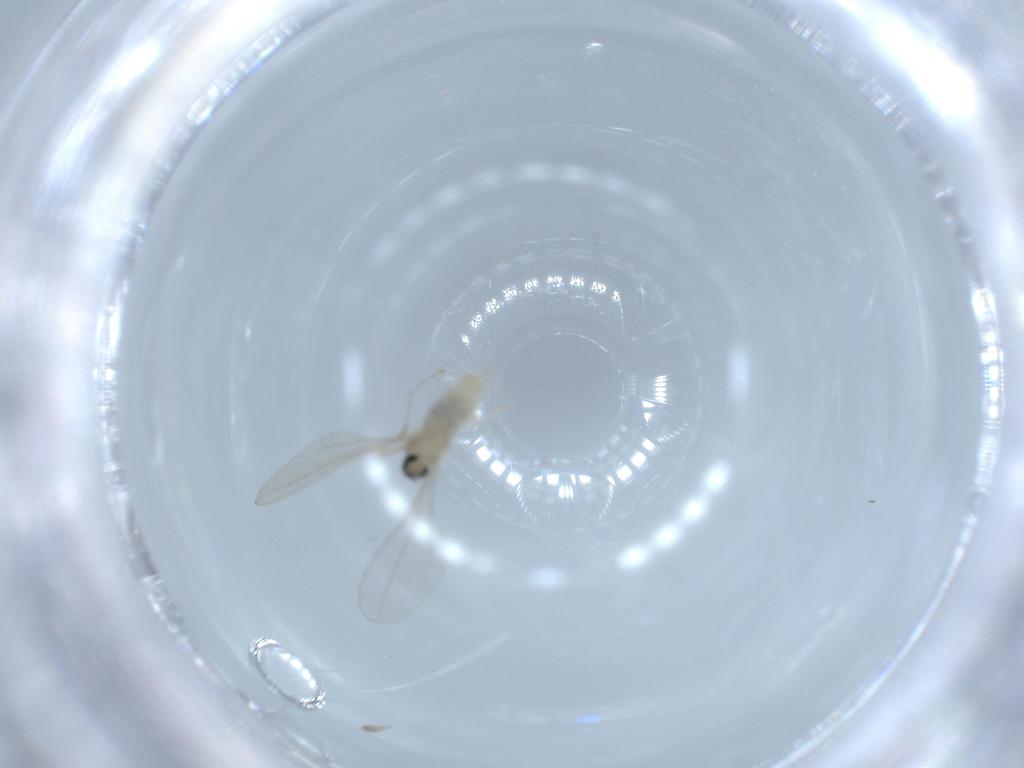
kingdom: Animalia
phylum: Arthropoda
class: Insecta
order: Diptera
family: Phoridae
